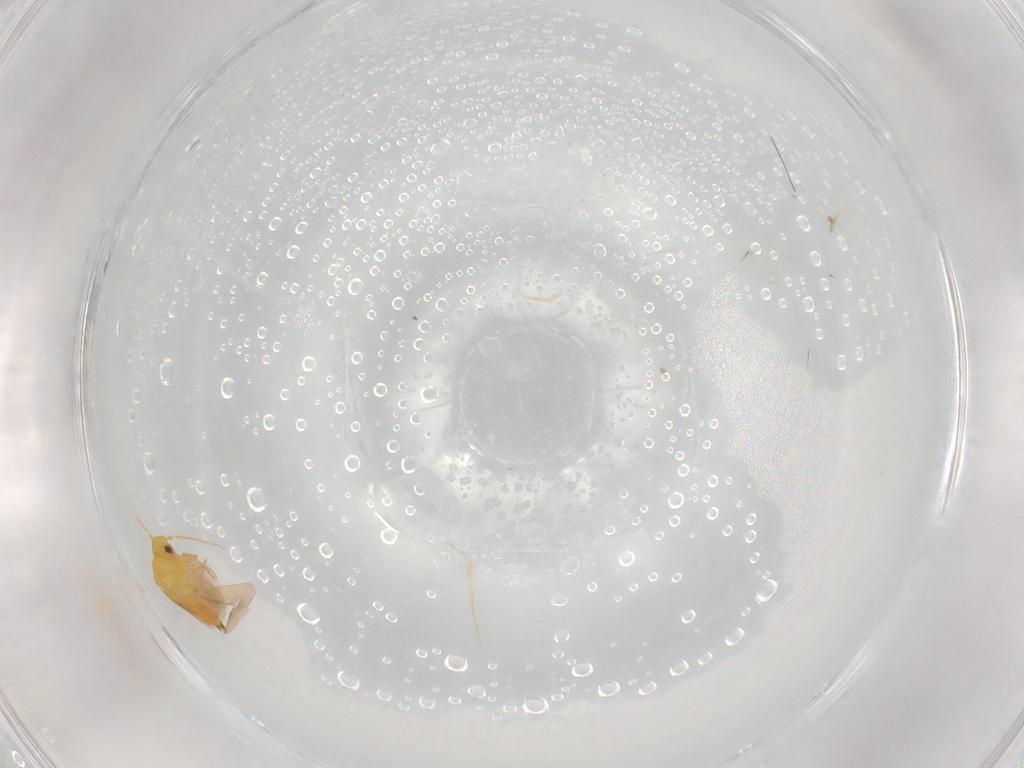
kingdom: Animalia
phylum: Arthropoda
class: Insecta
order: Hemiptera
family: Aleyrodidae
